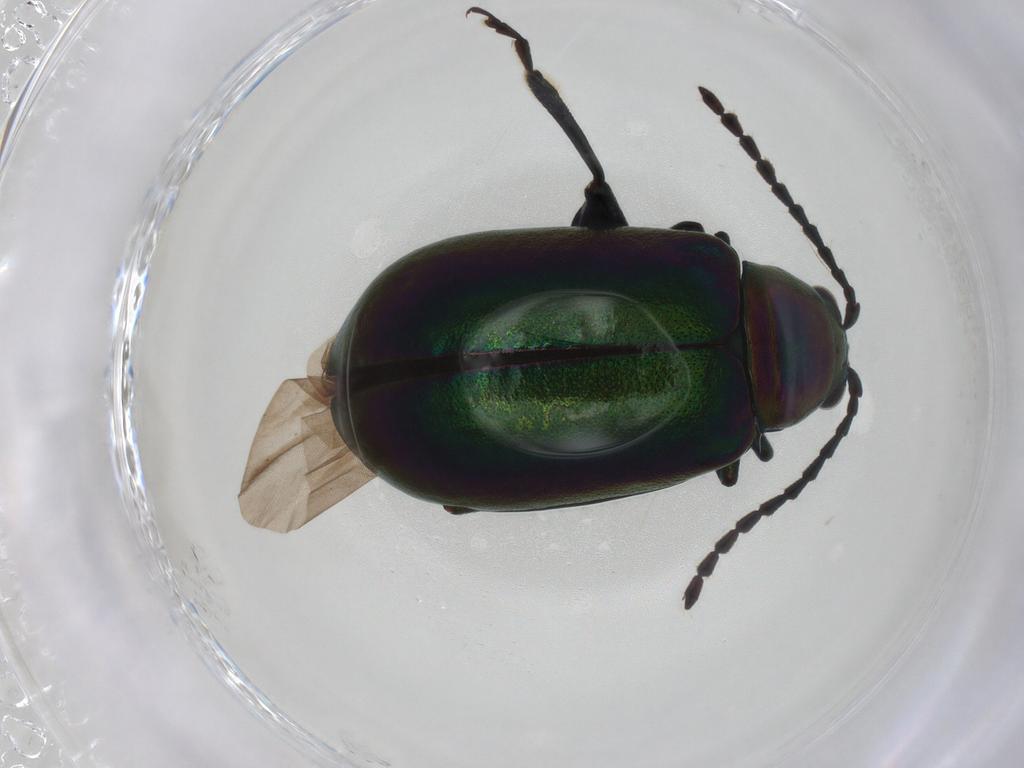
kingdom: Animalia
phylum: Arthropoda
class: Insecta
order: Coleoptera
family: Chrysomelidae
